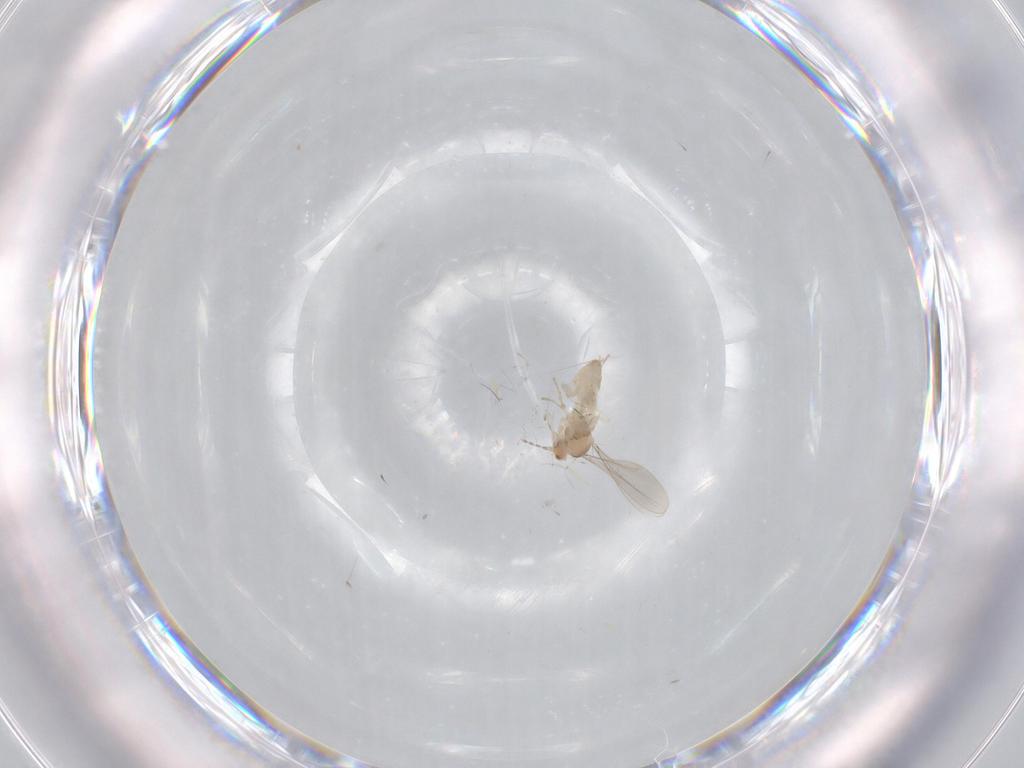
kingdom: Animalia
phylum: Arthropoda
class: Insecta
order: Diptera
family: Cecidomyiidae
